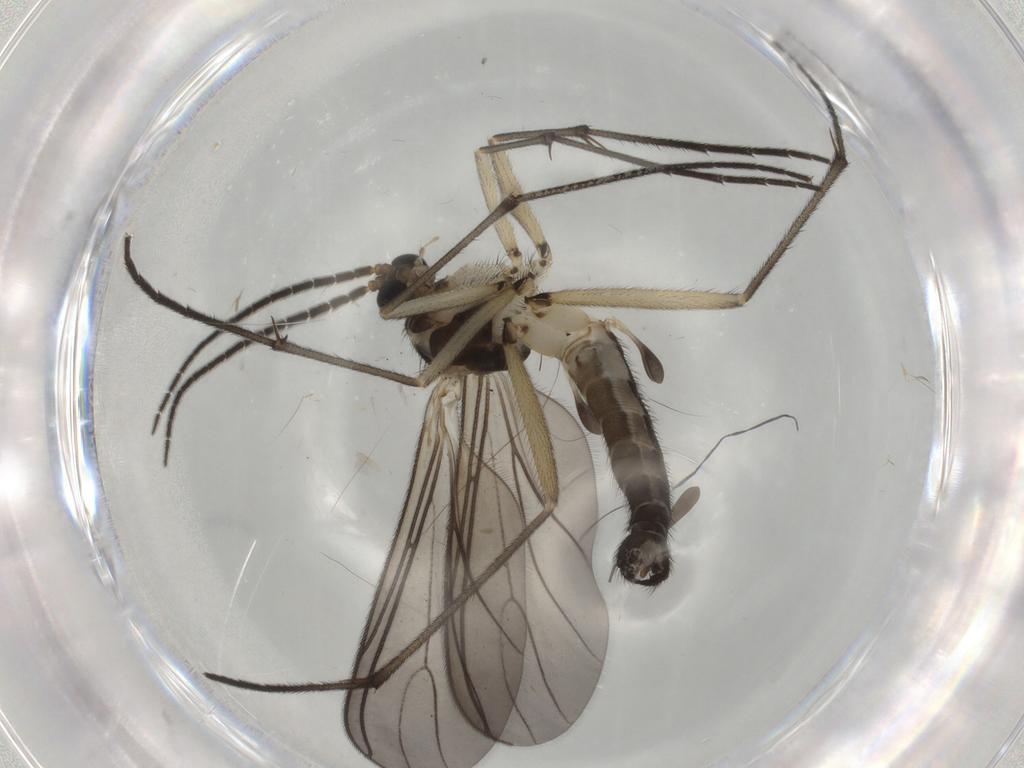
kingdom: Animalia
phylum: Arthropoda
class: Insecta
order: Diptera
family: Sciaridae
